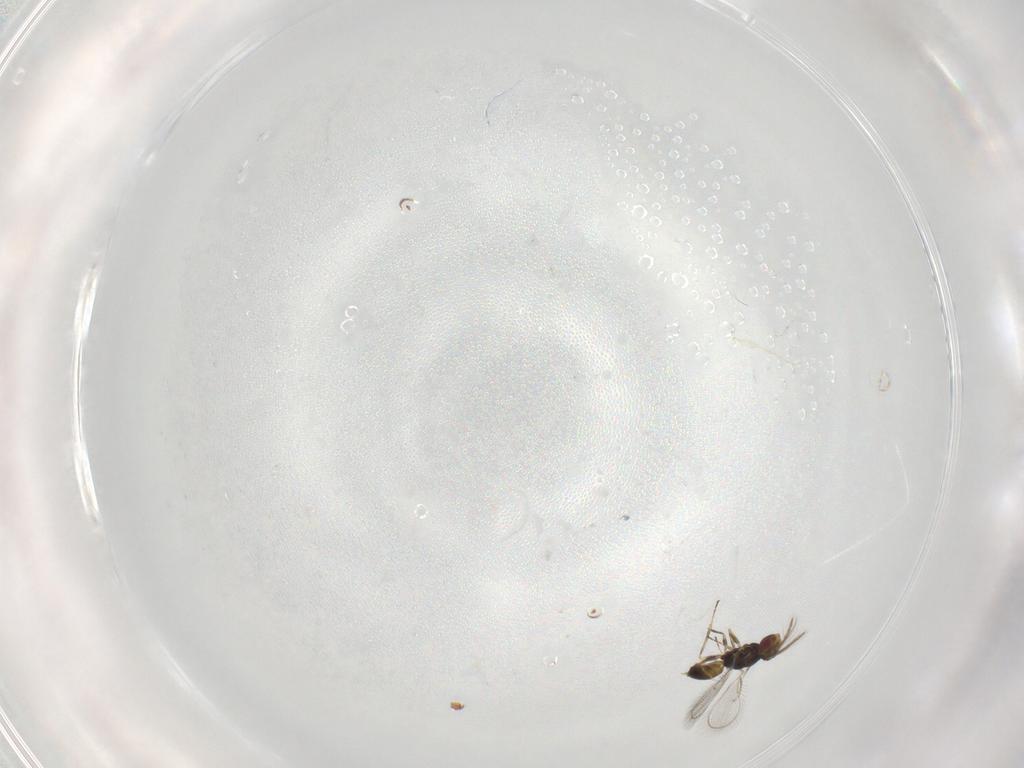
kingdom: Animalia
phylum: Arthropoda
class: Insecta
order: Hymenoptera
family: Eulophidae
